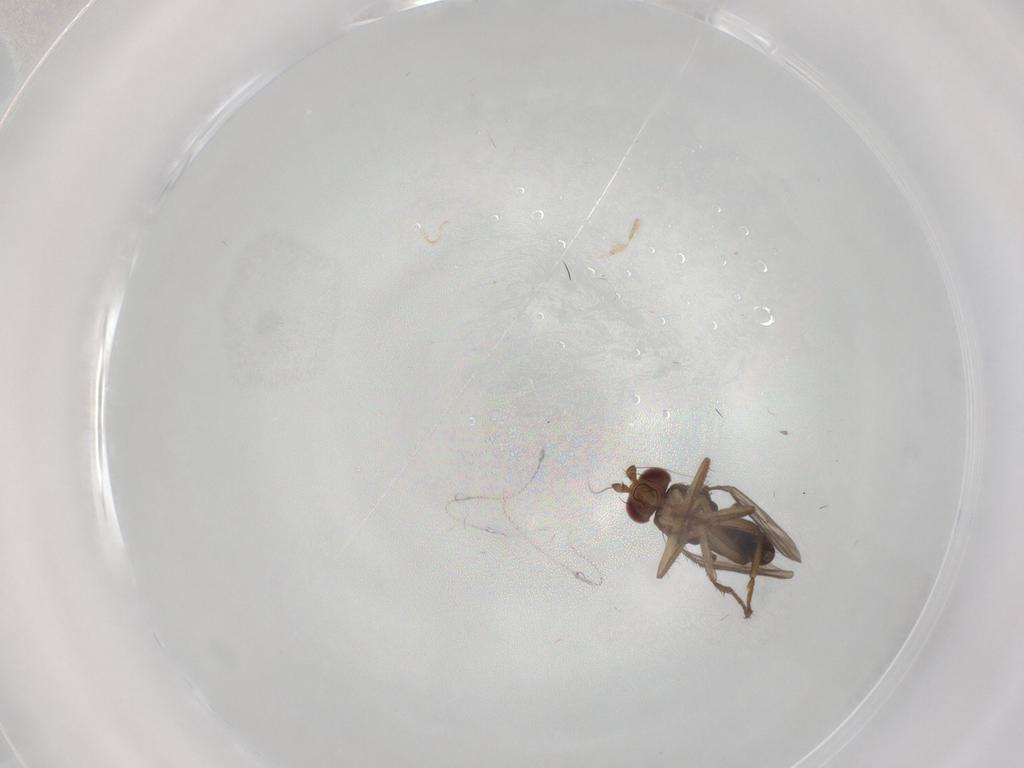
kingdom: Animalia
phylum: Arthropoda
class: Insecta
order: Diptera
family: Sphaeroceridae
